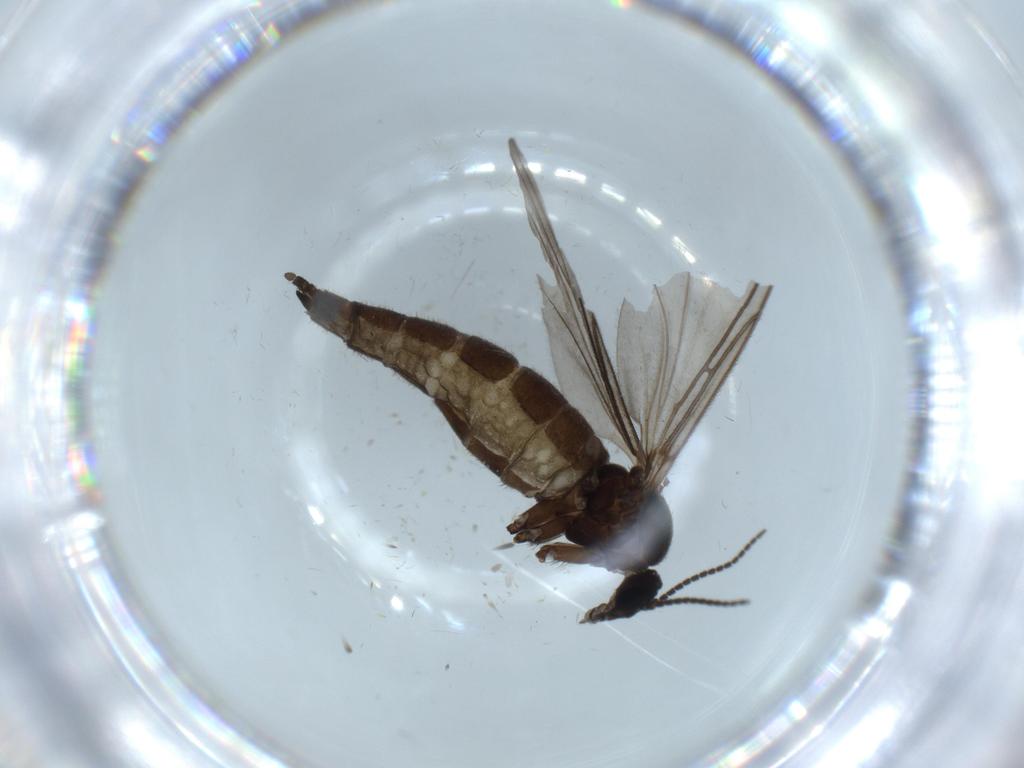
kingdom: Animalia
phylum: Arthropoda
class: Insecta
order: Diptera
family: Sciaridae
